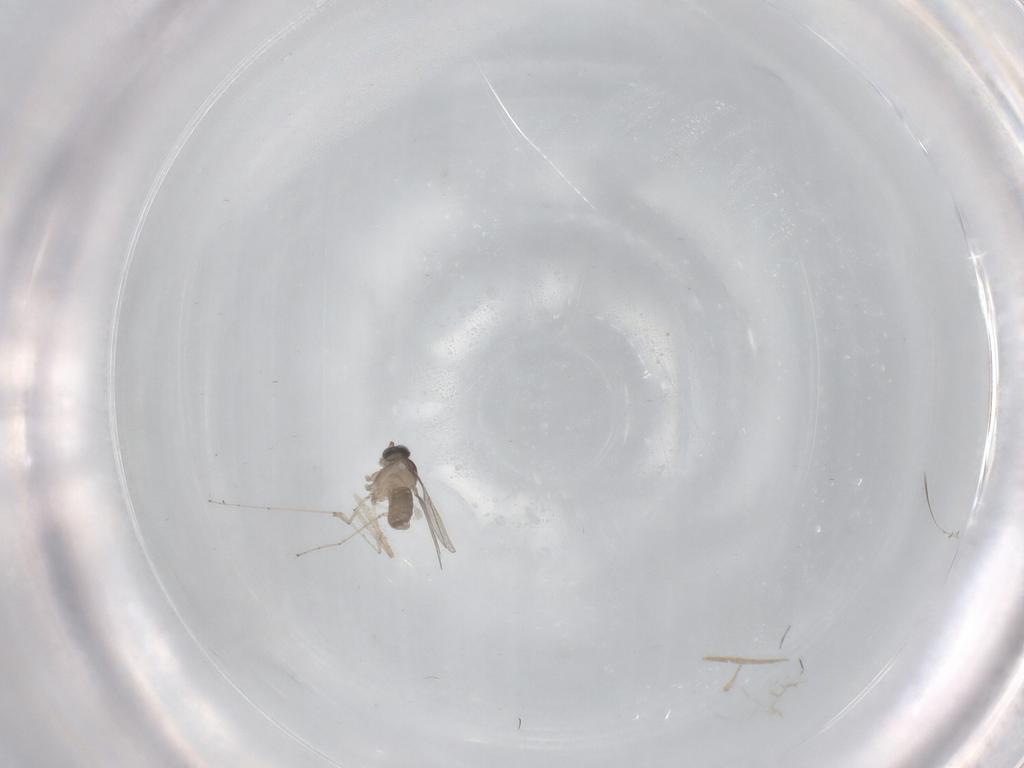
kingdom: Animalia
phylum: Arthropoda
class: Insecta
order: Diptera
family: Cecidomyiidae
